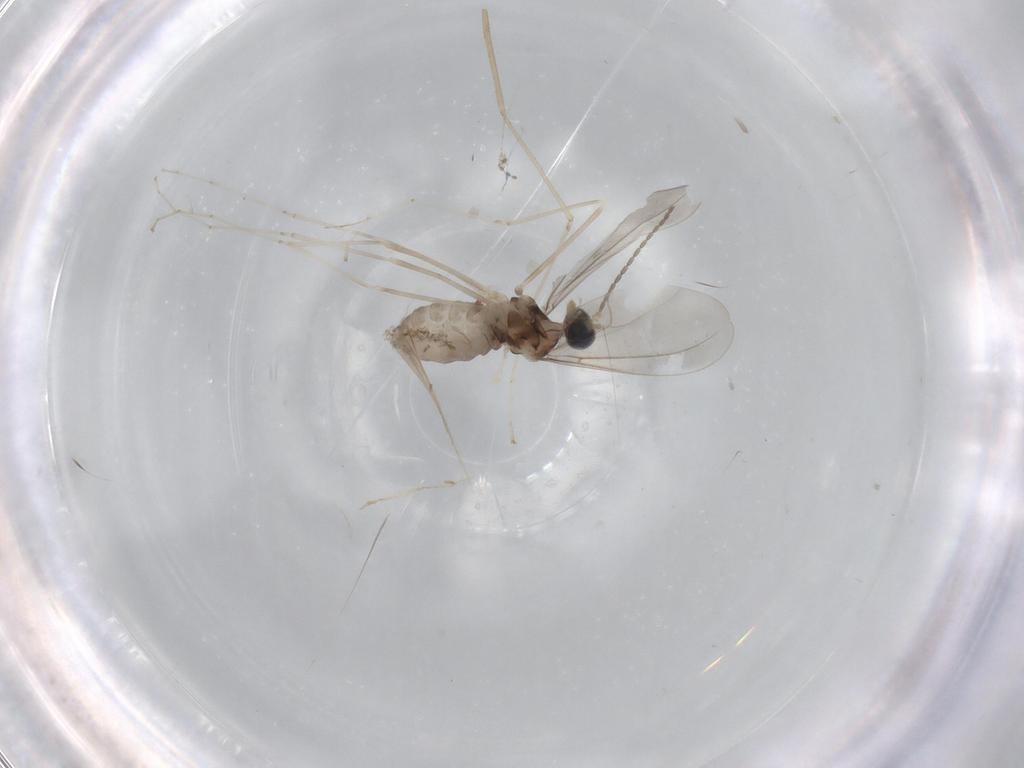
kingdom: Animalia
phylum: Arthropoda
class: Insecta
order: Diptera
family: Cecidomyiidae
